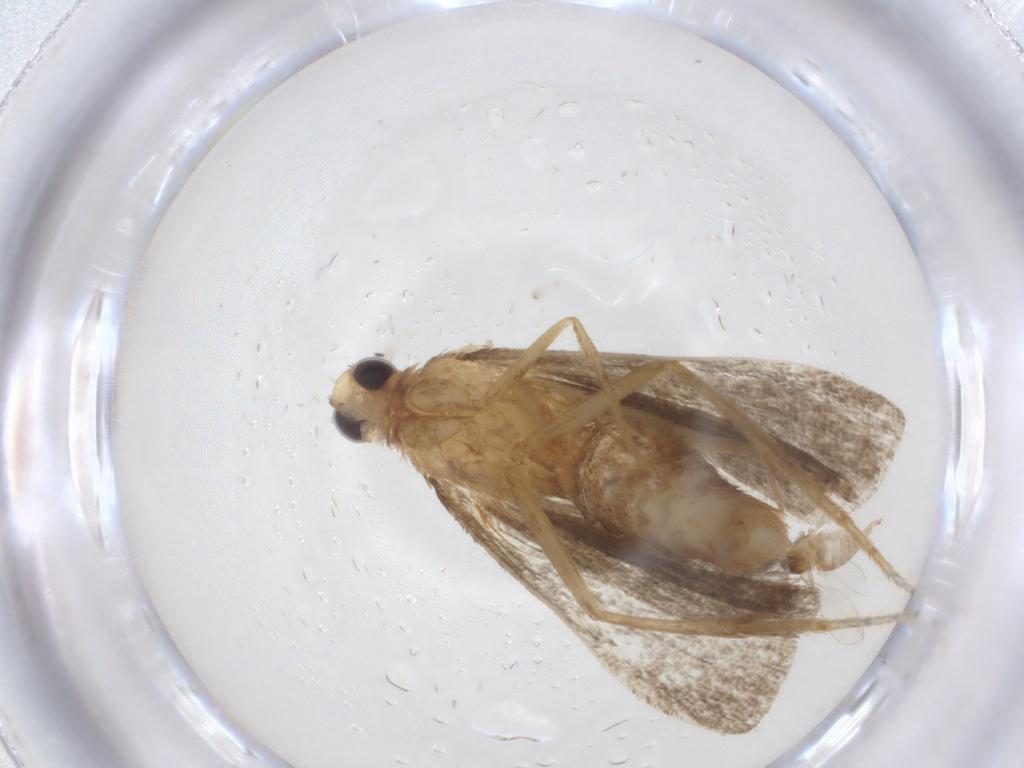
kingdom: Animalia
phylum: Arthropoda
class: Insecta
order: Lepidoptera
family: Pyralidae
